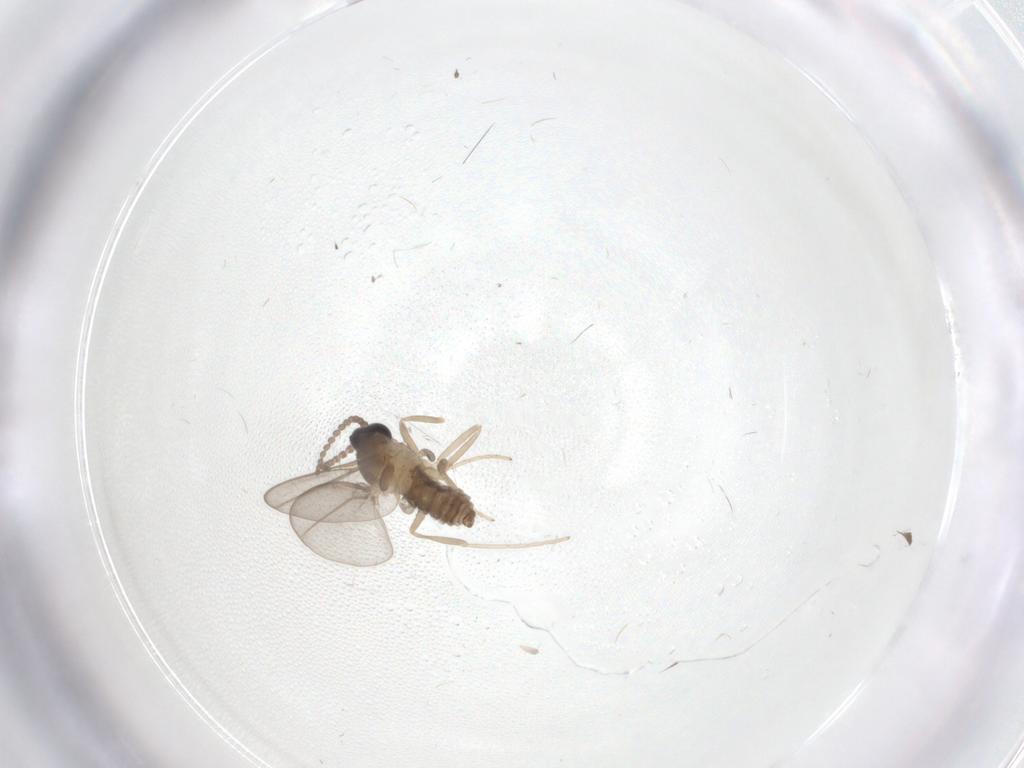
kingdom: Animalia
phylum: Arthropoda
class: Insecta
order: Diptera
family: Cecidomyiidae
